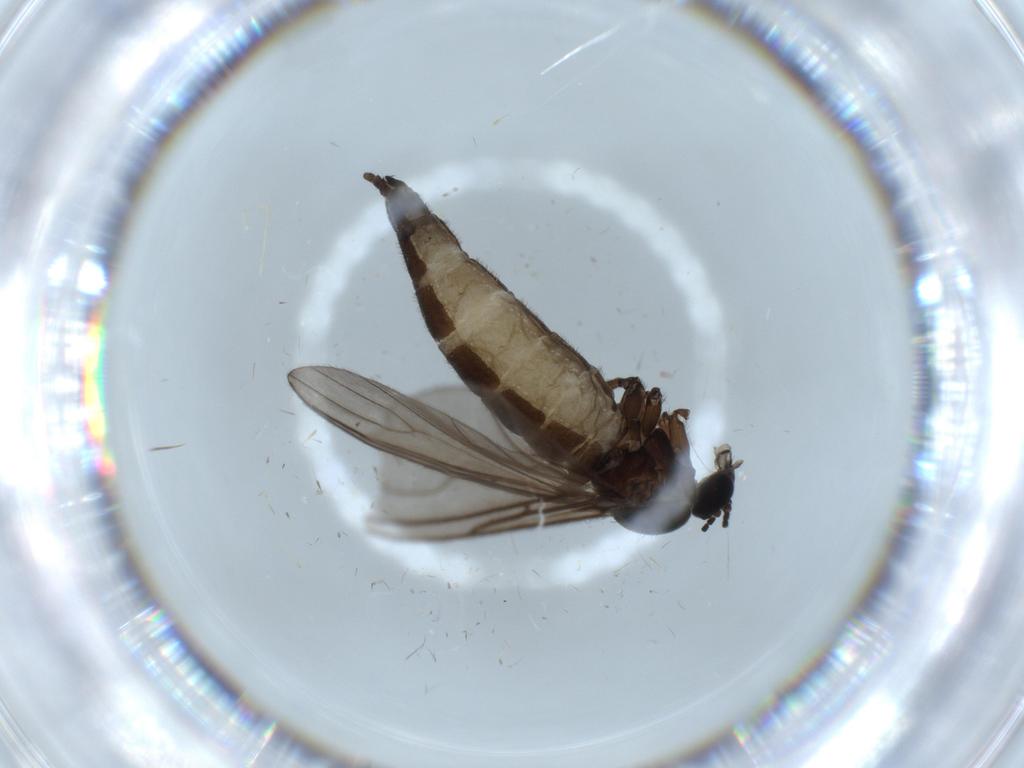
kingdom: Animalia
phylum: Arthropoda
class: Insecta
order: Diptera
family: Sciaridae
